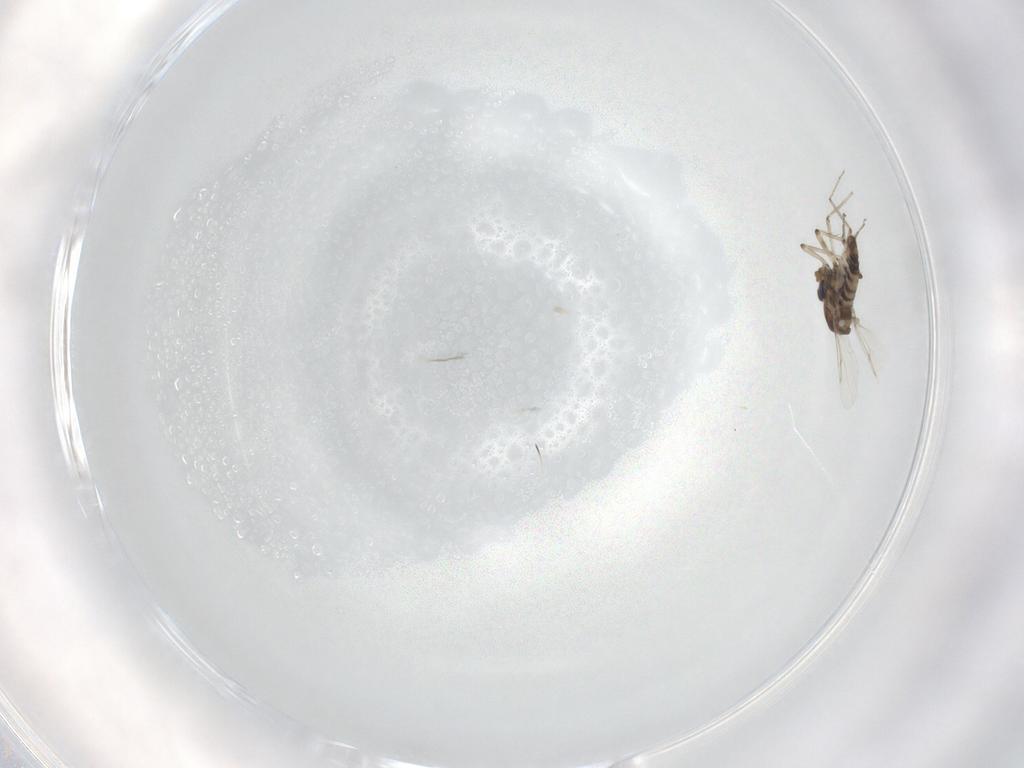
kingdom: Animalia
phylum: Arthropoda
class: Insecta
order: Diptera
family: Ceratopogonidae
